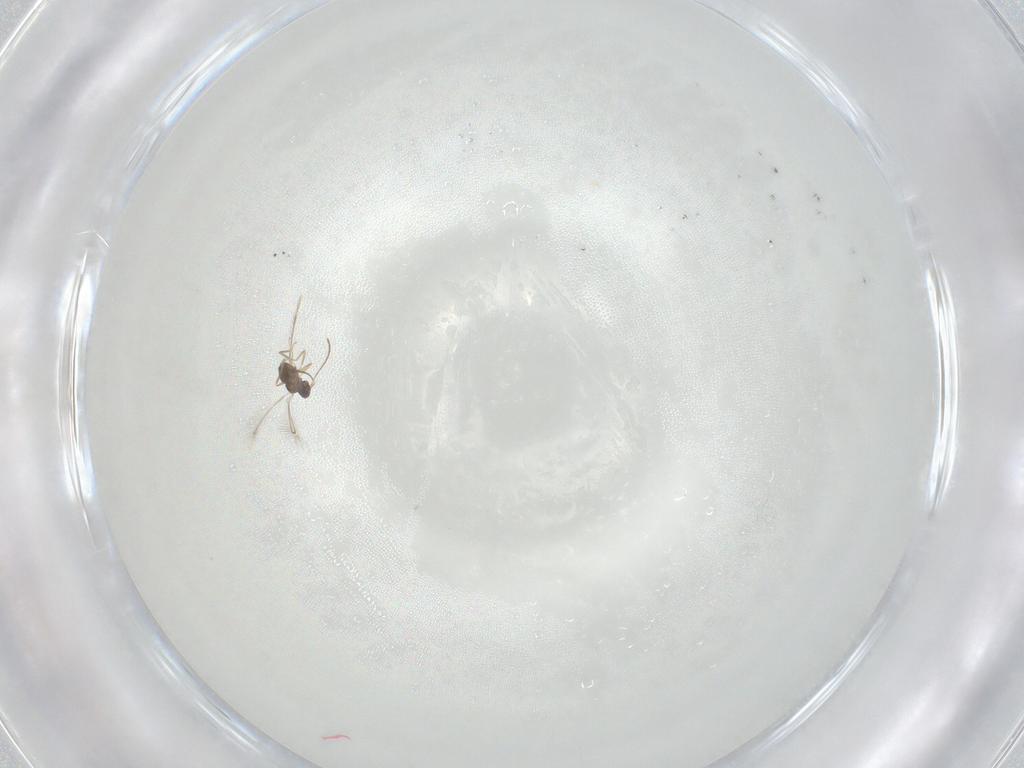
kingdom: Animalia
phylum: Arthropoda
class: Insecta
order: Hymenoptera
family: Mymaridae
